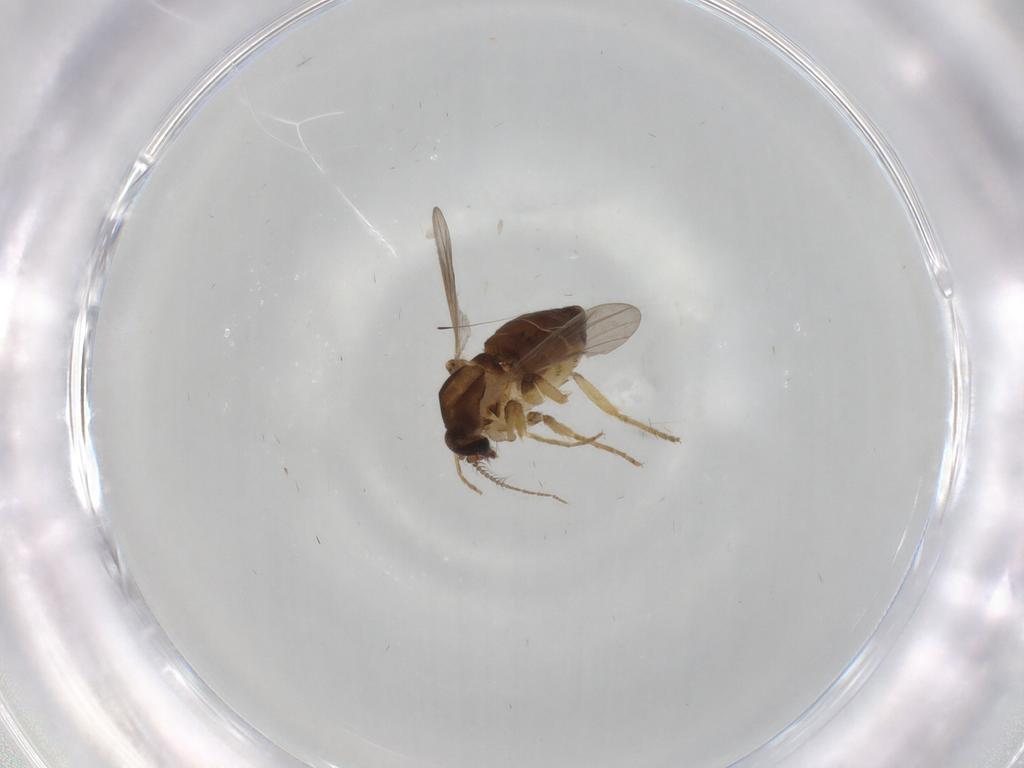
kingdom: Animalia
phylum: Arthropoda
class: Insecta
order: Diptera
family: Ceratopogonidae
